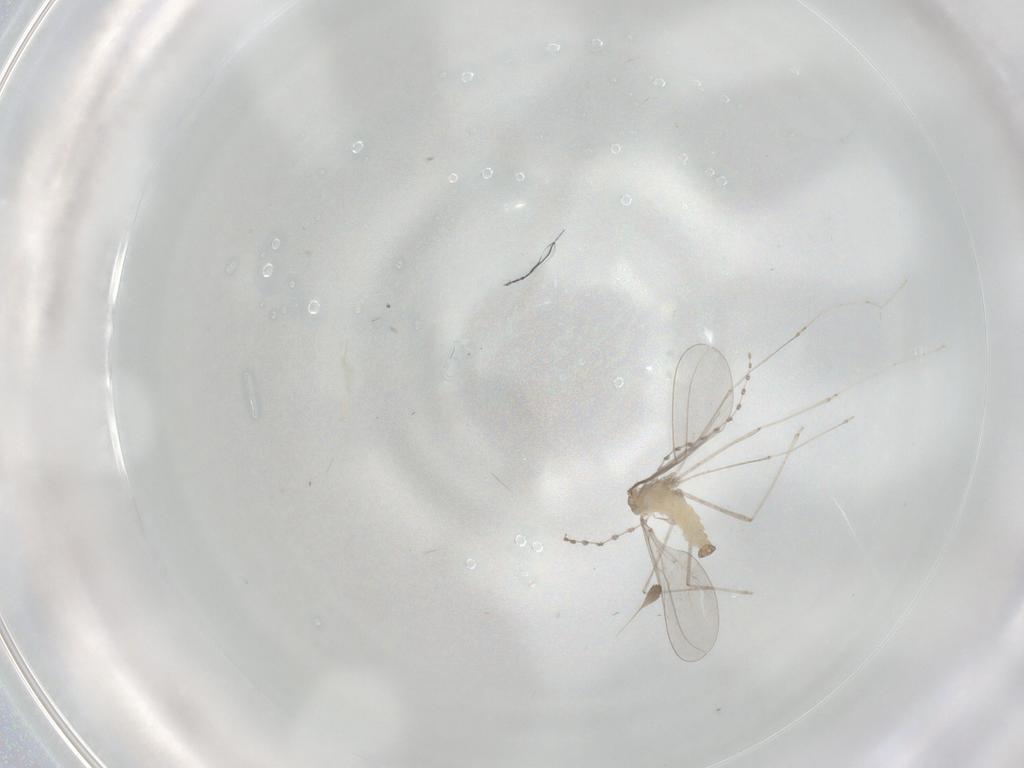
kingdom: Animalia
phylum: Arthropoda
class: Insecta
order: Diptera
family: Cecidomyiidae
